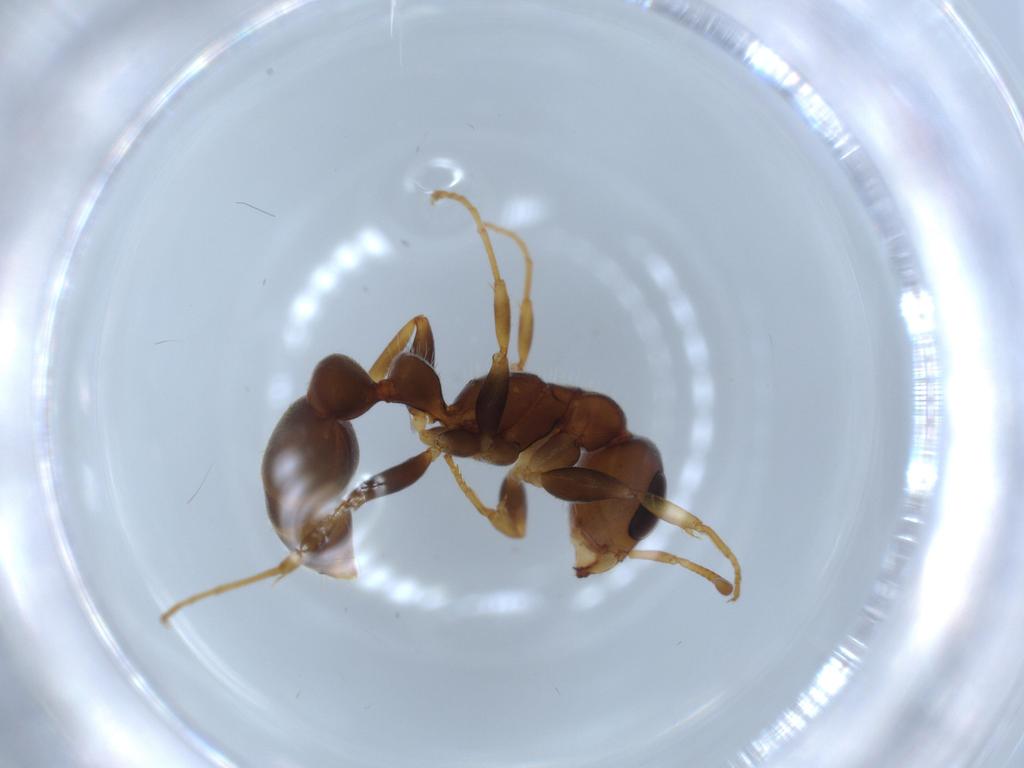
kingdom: Animalia
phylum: Arthropoda
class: Insecta
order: Hymenoptera
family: Formicidae
